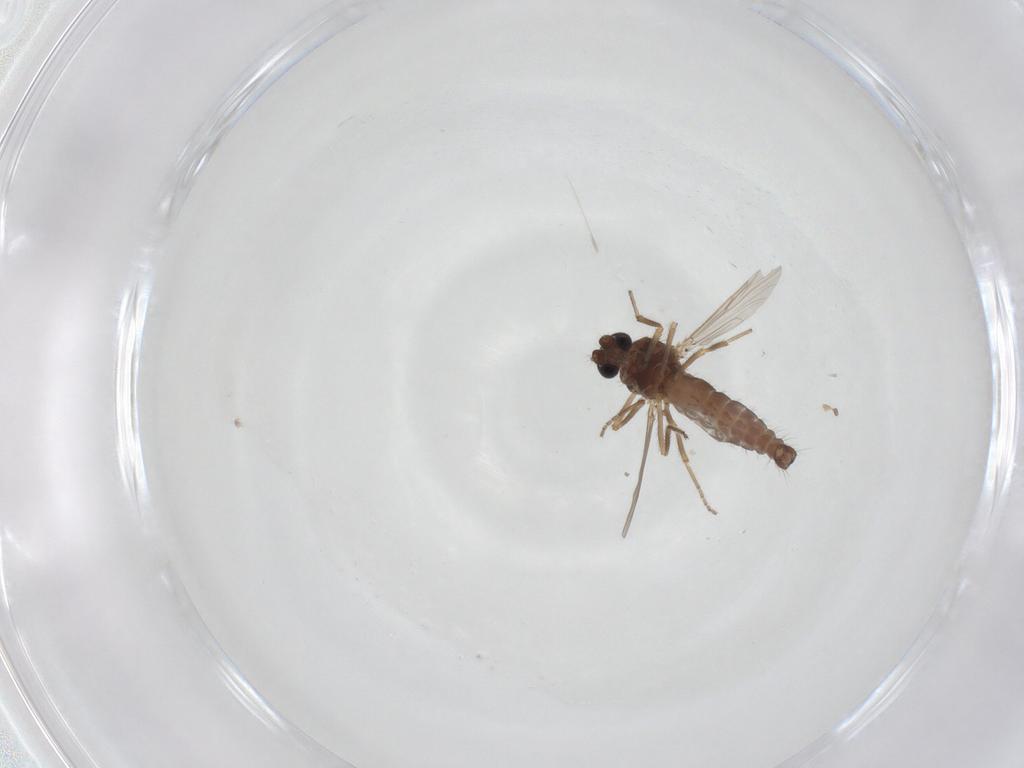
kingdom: Animalia
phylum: Arthropoda
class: Insecta
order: Diptera
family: Ceratopogonidae
